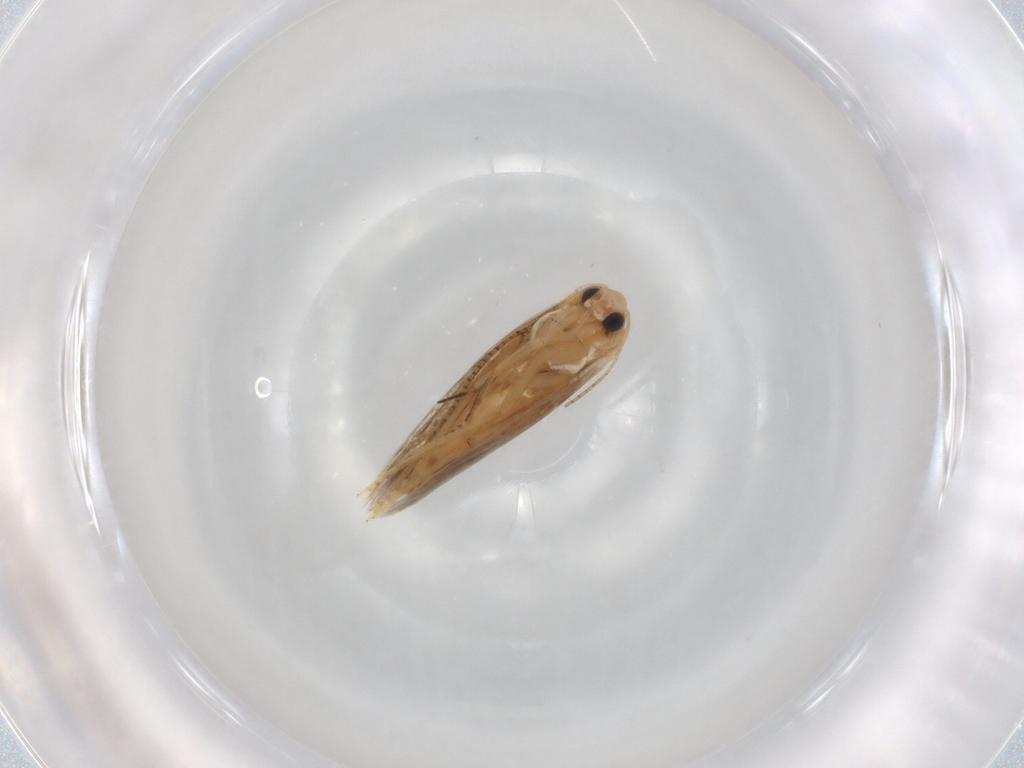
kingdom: Animalia
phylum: Arthropoda
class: Insecta
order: Lepidoptera
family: Bucculatricidae
